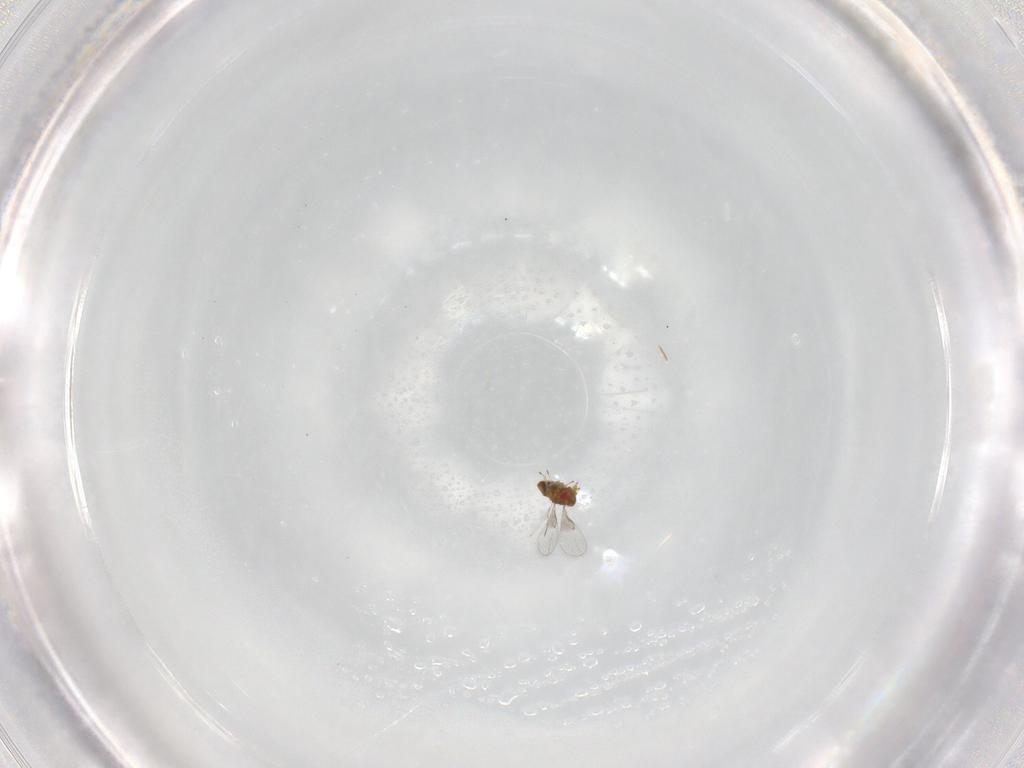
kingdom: Animalia
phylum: Arthropoda
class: Insecta
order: Hymenoptera
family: Trichogrammatidae
